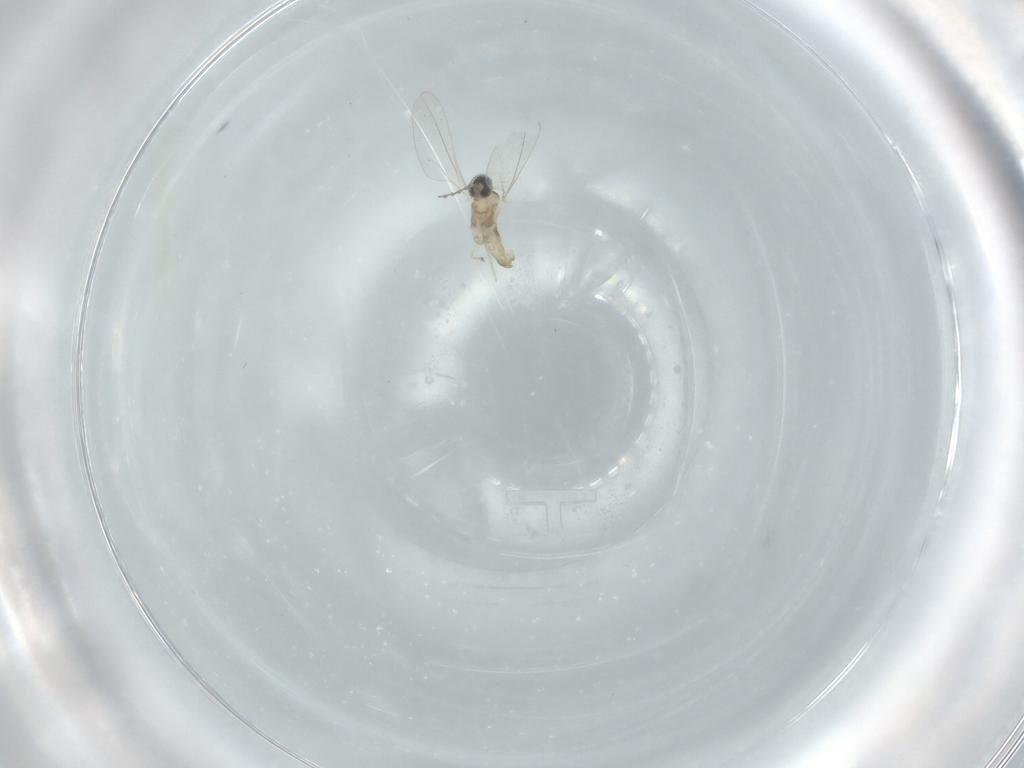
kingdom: Animalia
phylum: Arthropoda
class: Insecta
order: Diptera
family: Cecidomyiidae
